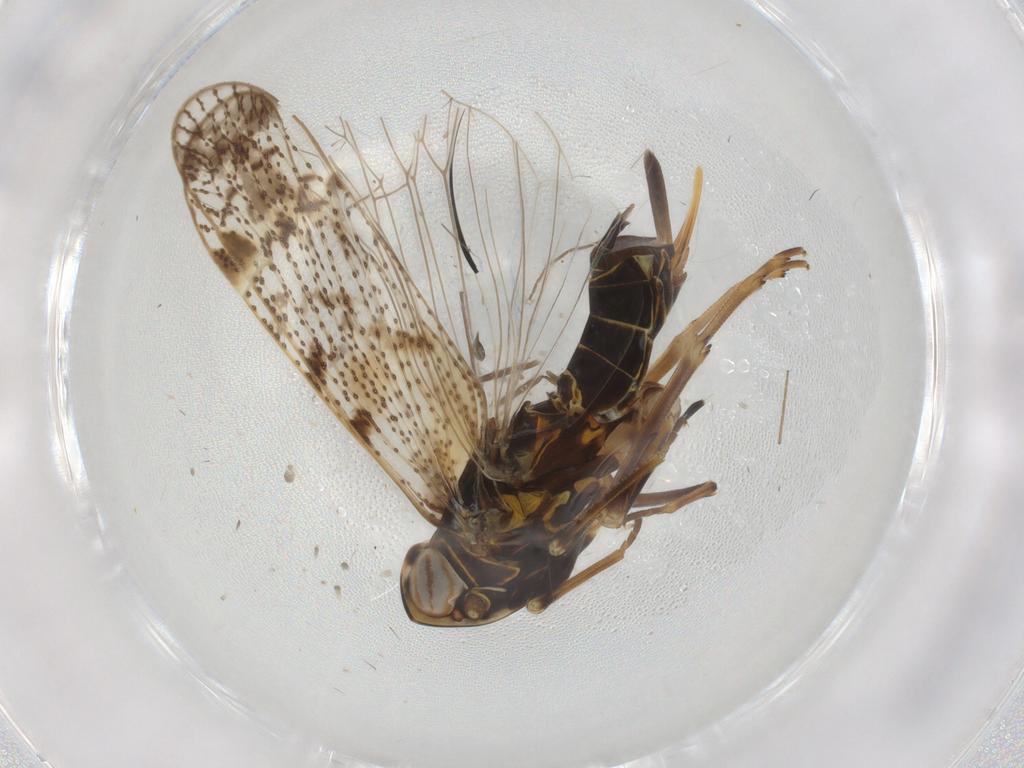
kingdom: Animalia
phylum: Arthropoda
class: Insecta
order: Hemiptera
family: Cixiidae
